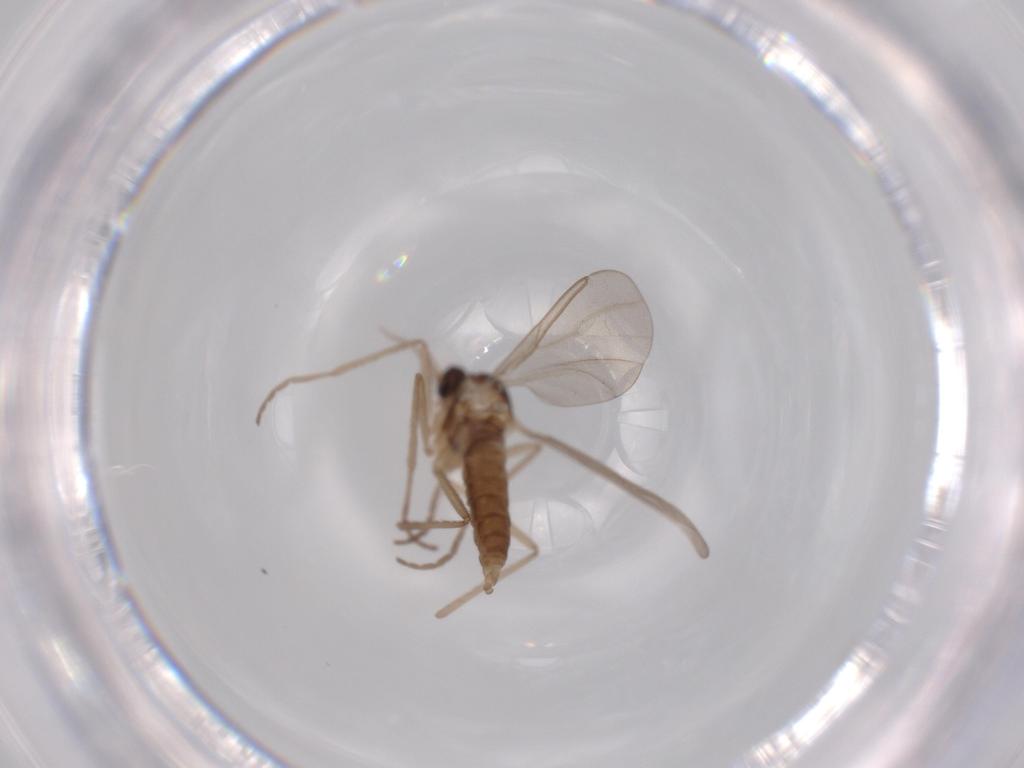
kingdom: Animalia
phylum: Arthropoda
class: Insecta
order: Diptera
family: Cecidomyiidae
